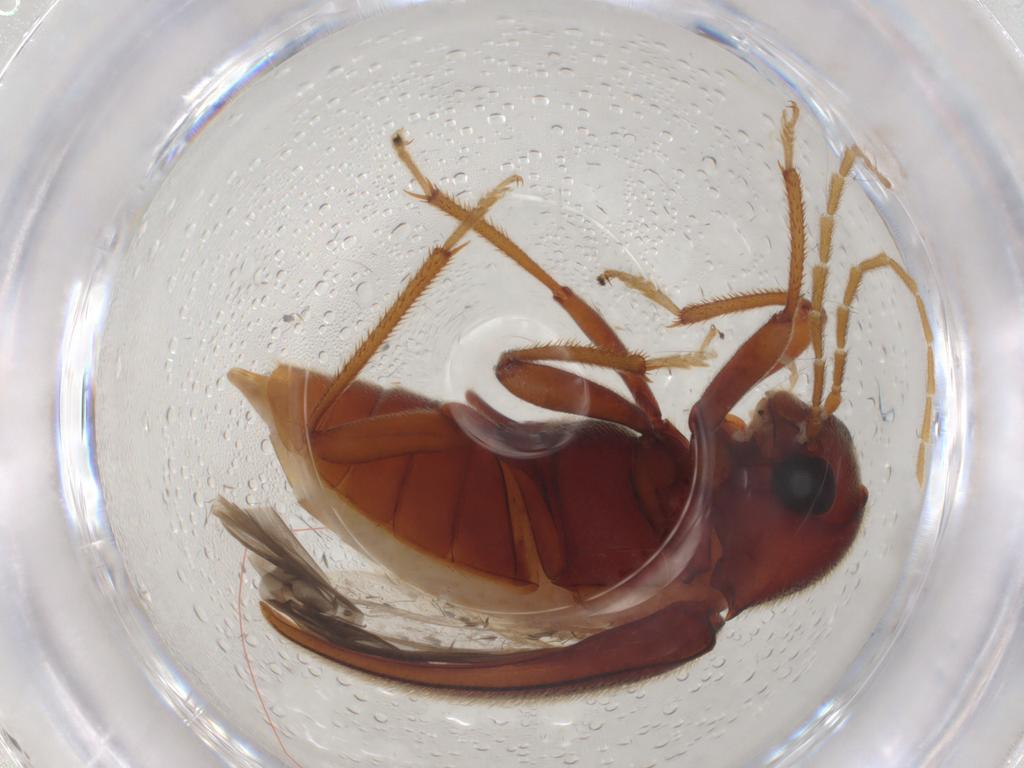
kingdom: Animalia
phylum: Arthropoda
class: Insecta
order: Coleoptera
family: Ptilodactylidae
